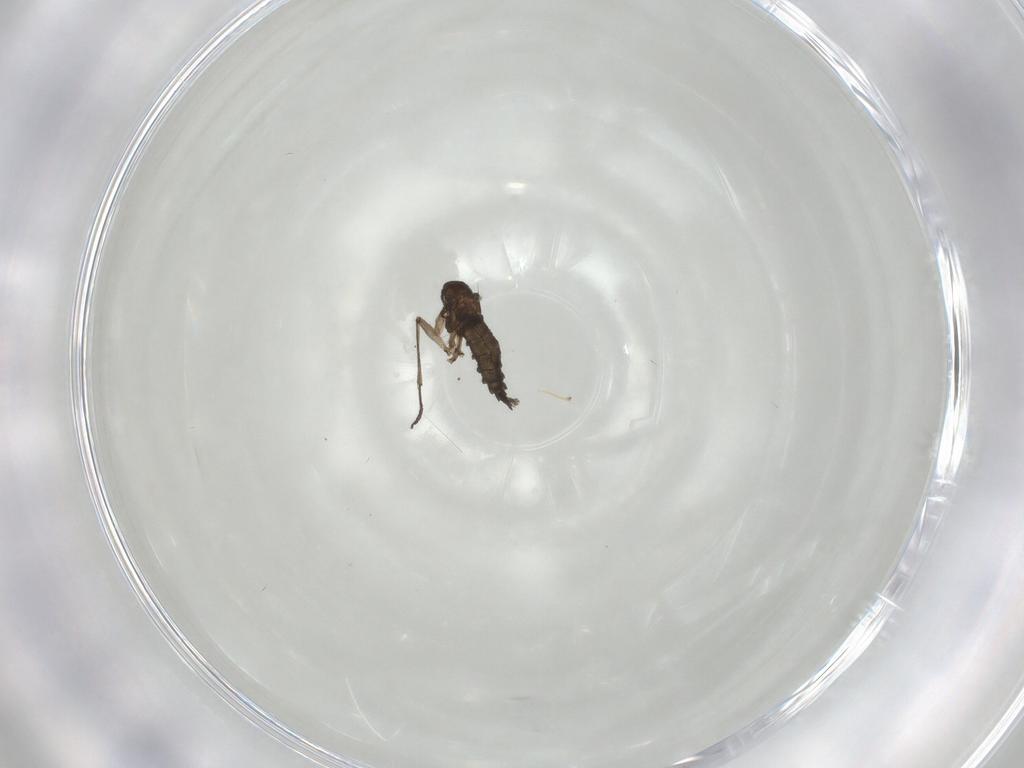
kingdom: Animalia
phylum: Arthropoda
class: Insecta
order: Diptera
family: Sciaridae
